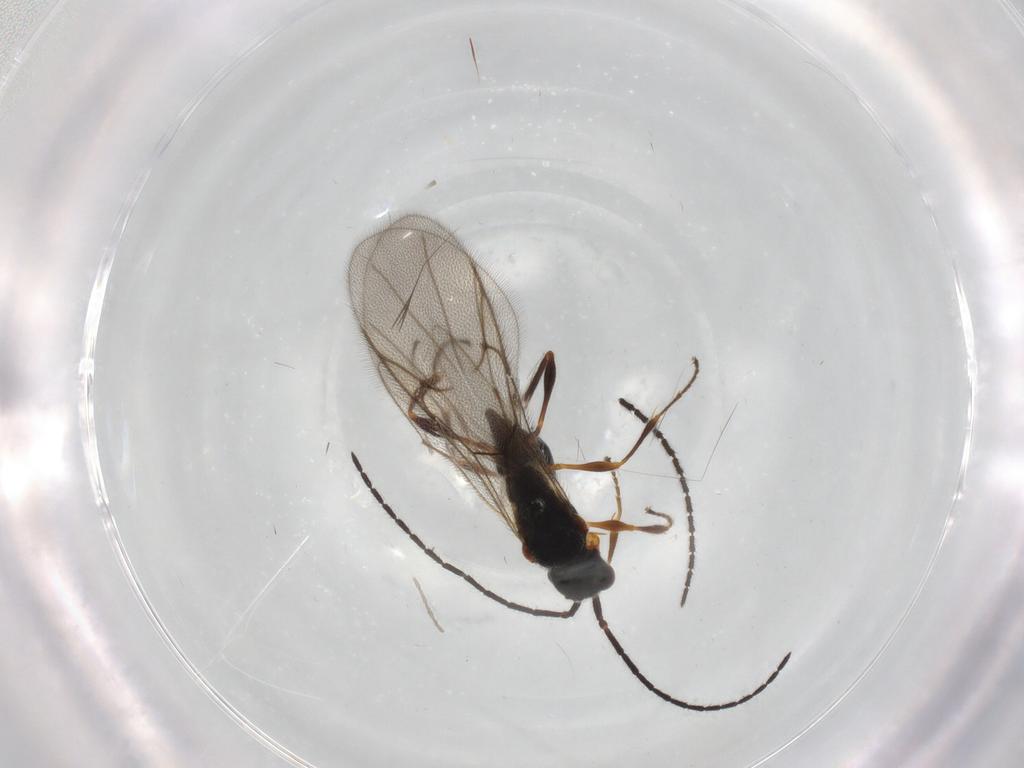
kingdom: Animalia
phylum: Arthropoda
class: Insecta
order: Hymenoptera
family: Diapriidae
